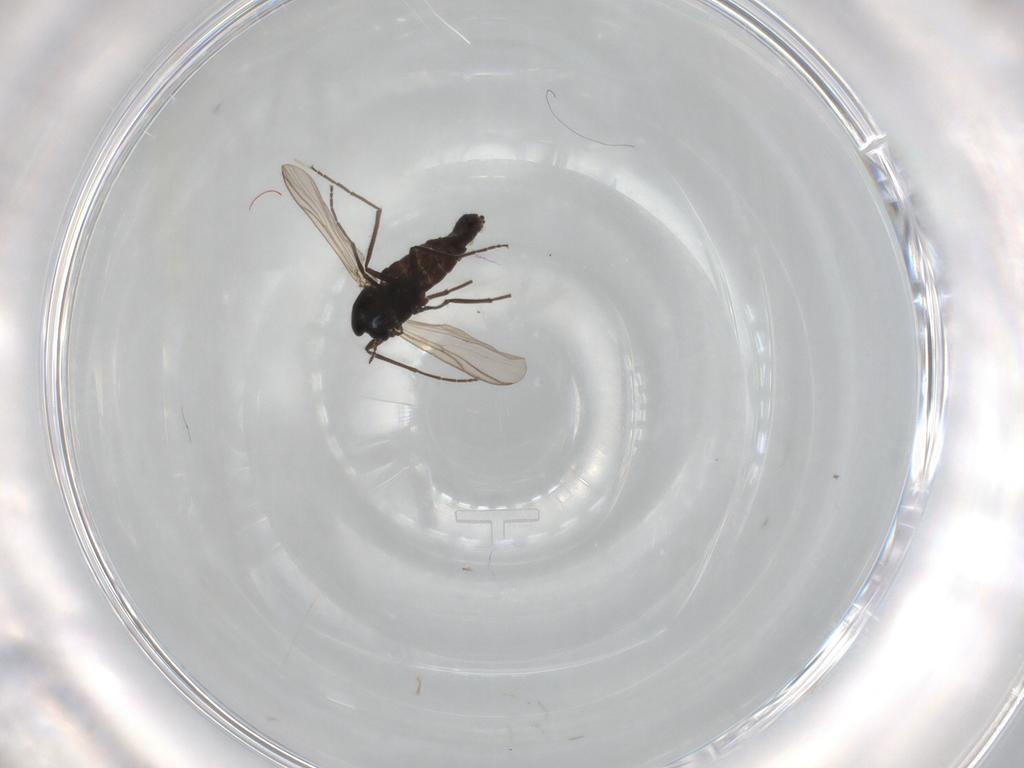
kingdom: Animalia
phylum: Arthropoda
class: Insecta
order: Diptera
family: Chironomidae
